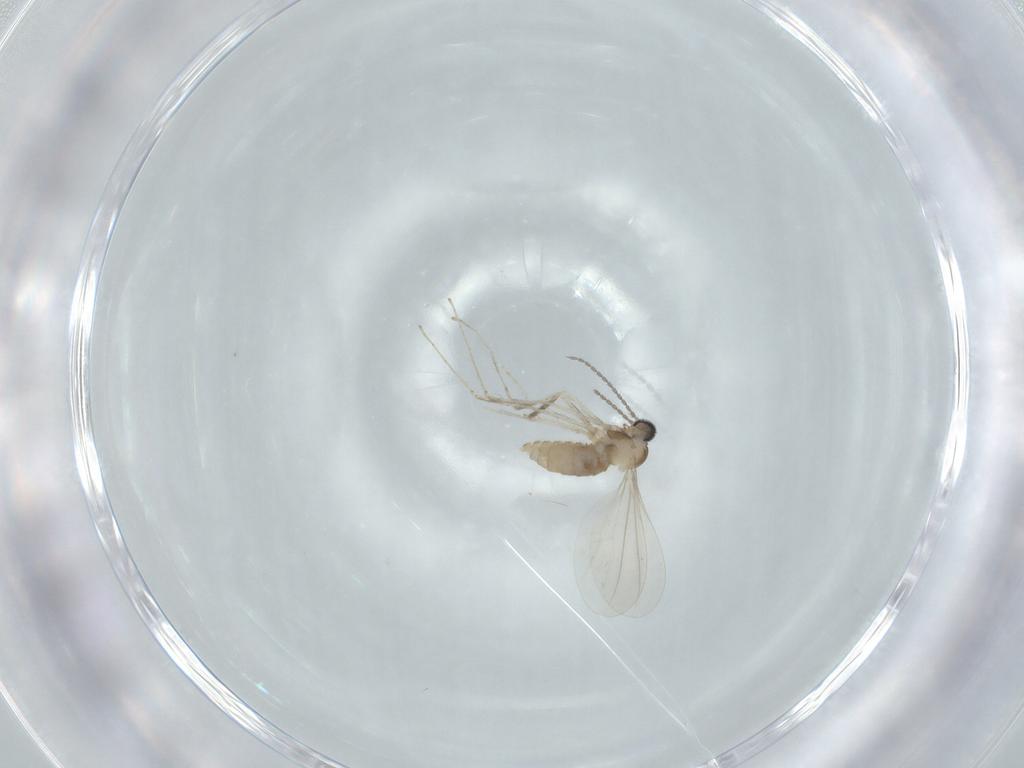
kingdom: Animalia
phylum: Arthropoda
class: Insecta
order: Diptera
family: Cecidomyiidae
